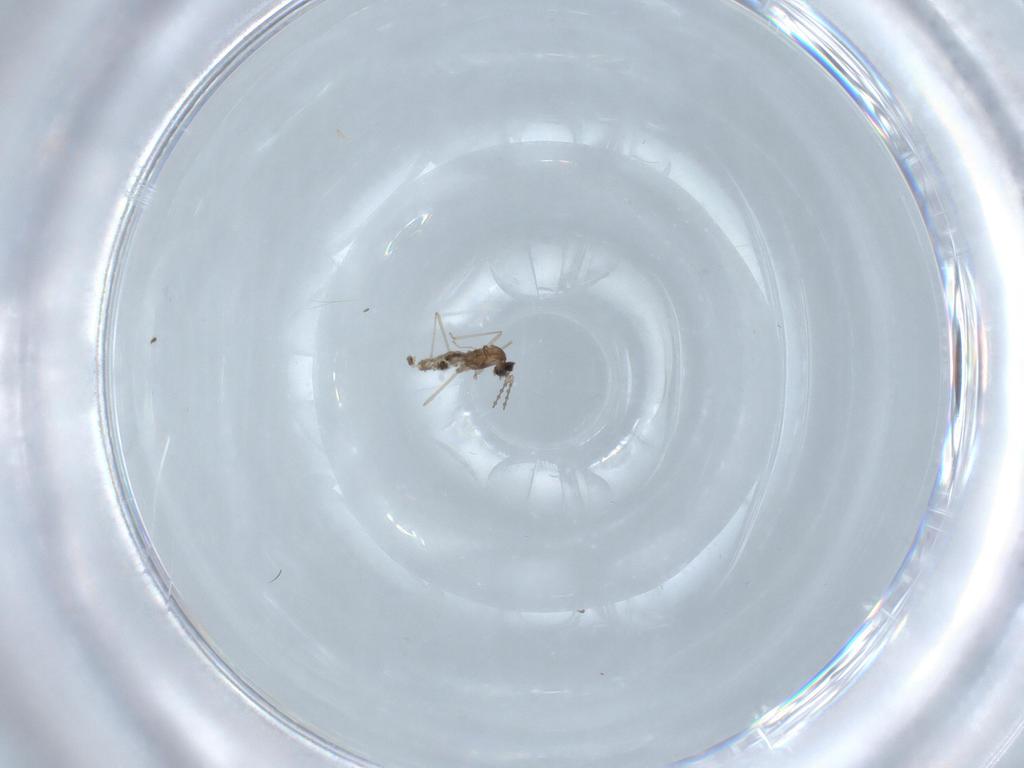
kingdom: Animalia
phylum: Arthropoda
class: Insecta
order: Diptera
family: Cecidomyiidae
